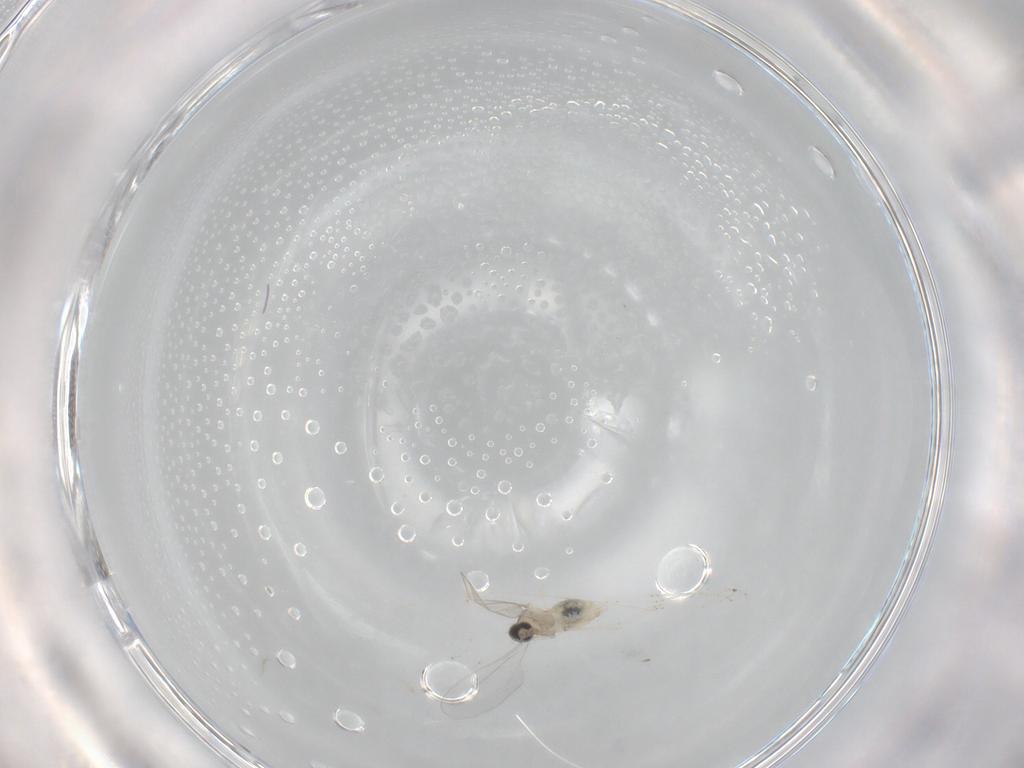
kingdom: Animalia
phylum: Arthropoda
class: Insecta
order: Diptera
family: Cecidomyiidae
